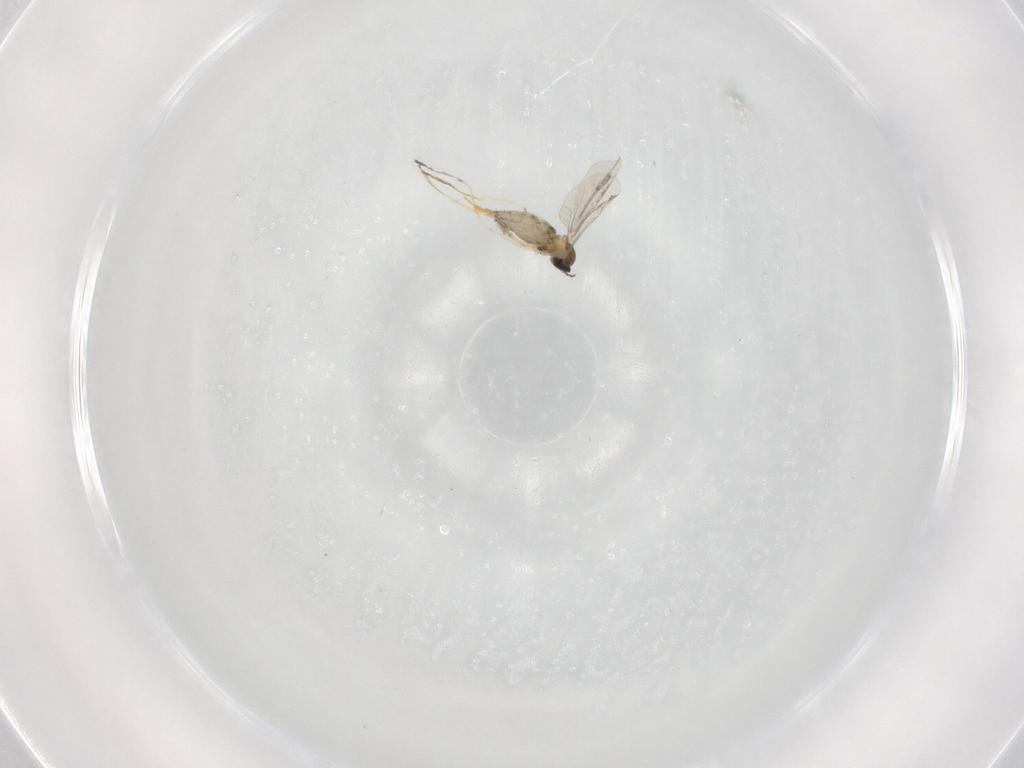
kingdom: Animalia
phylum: Arthropoda
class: Insecta
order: Diptera
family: Cecidomyiidae
